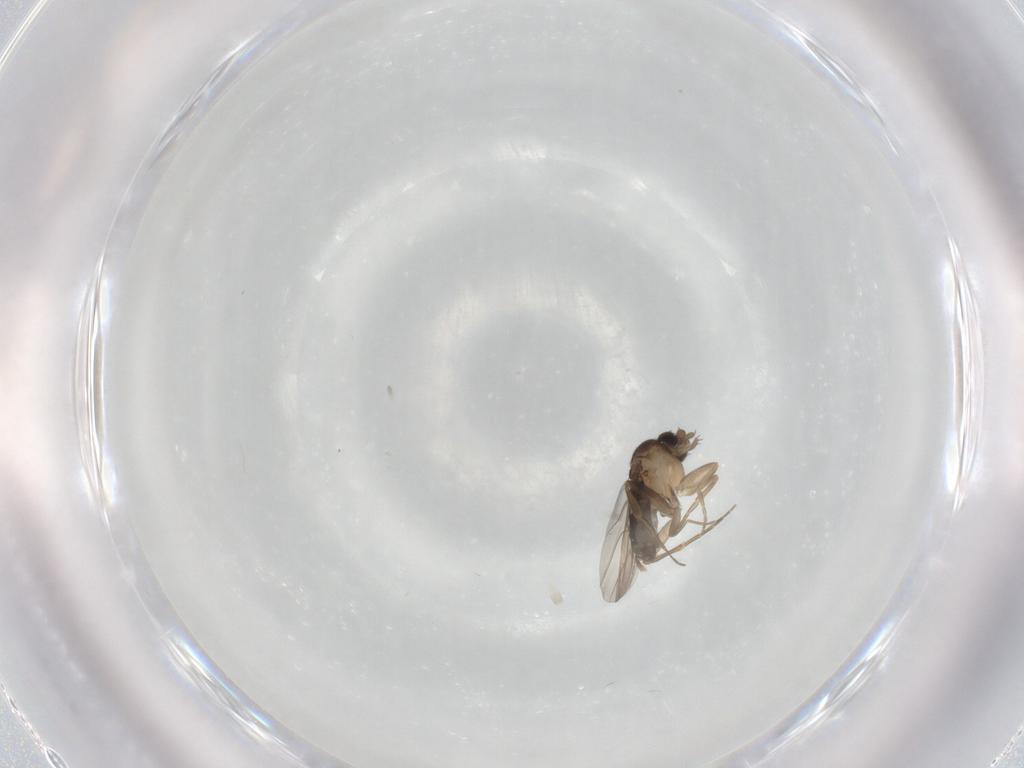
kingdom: Animalia
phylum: Arthropoda
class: Insecta
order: Diptera
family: Phoridae
